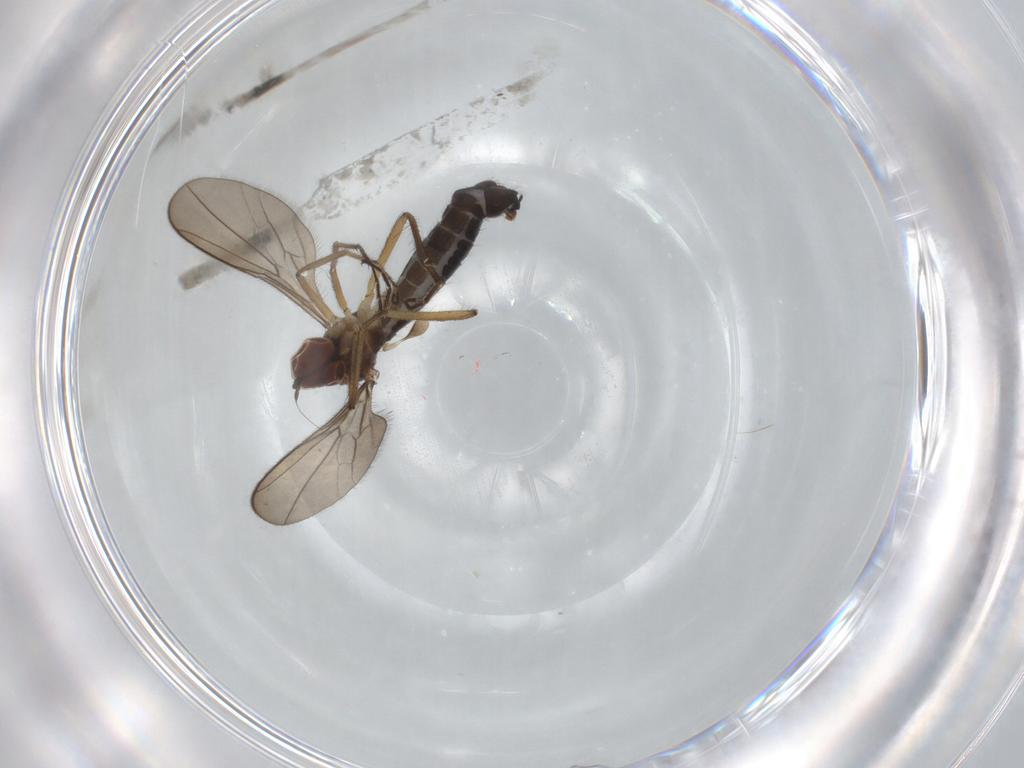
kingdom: Animalia
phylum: Arthropoda
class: Insecta
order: Diptera
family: Hybotidae
